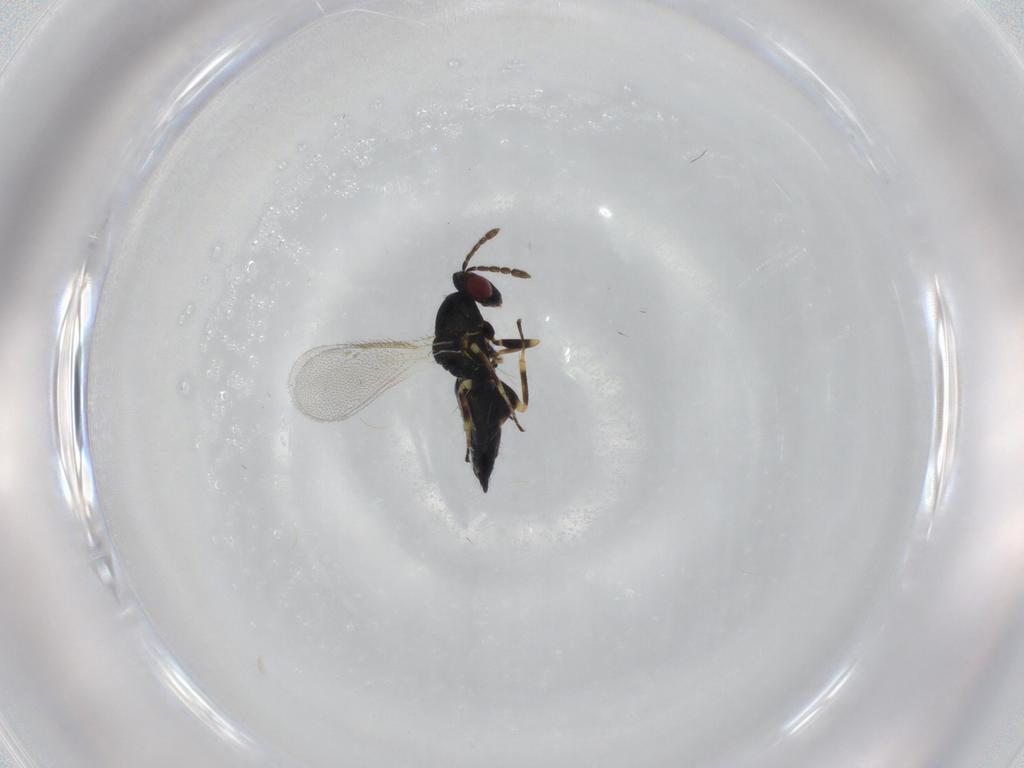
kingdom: Animalia
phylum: Arthropoda
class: Insecta
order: Hymenoptera
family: Eulophidae
